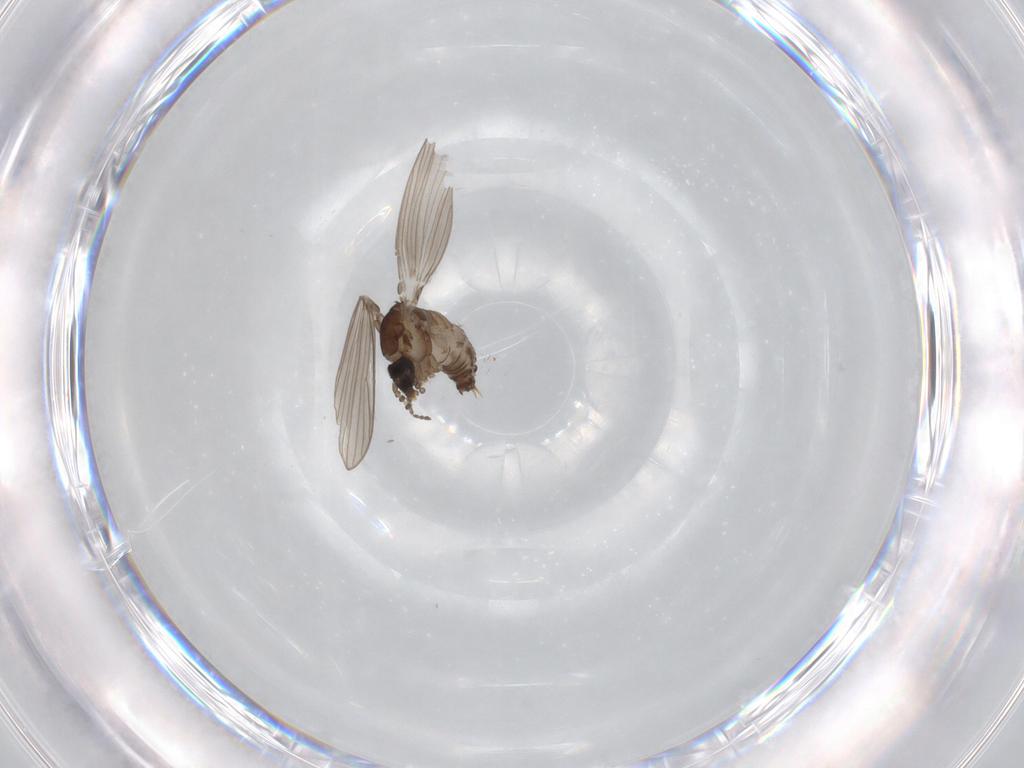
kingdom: Animalia
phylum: Arthropoda
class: Insecta
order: Diptera
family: Psychodidae
